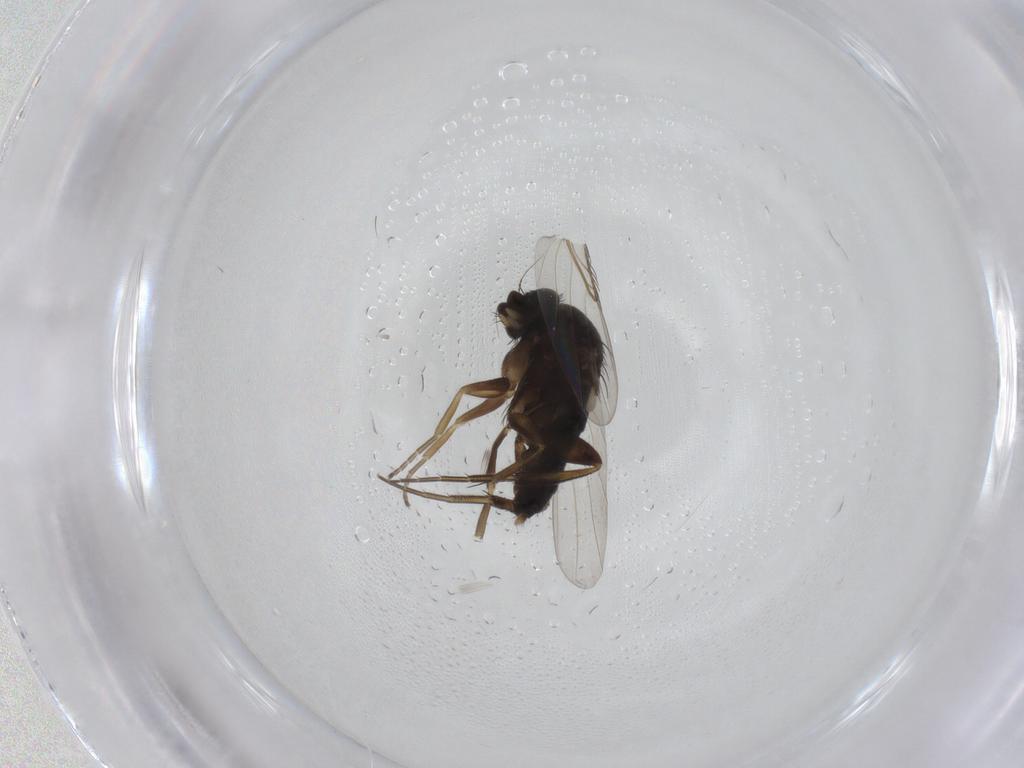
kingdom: Animalia
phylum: Arthropoda
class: Insecta
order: Diptera
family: Phoridae
